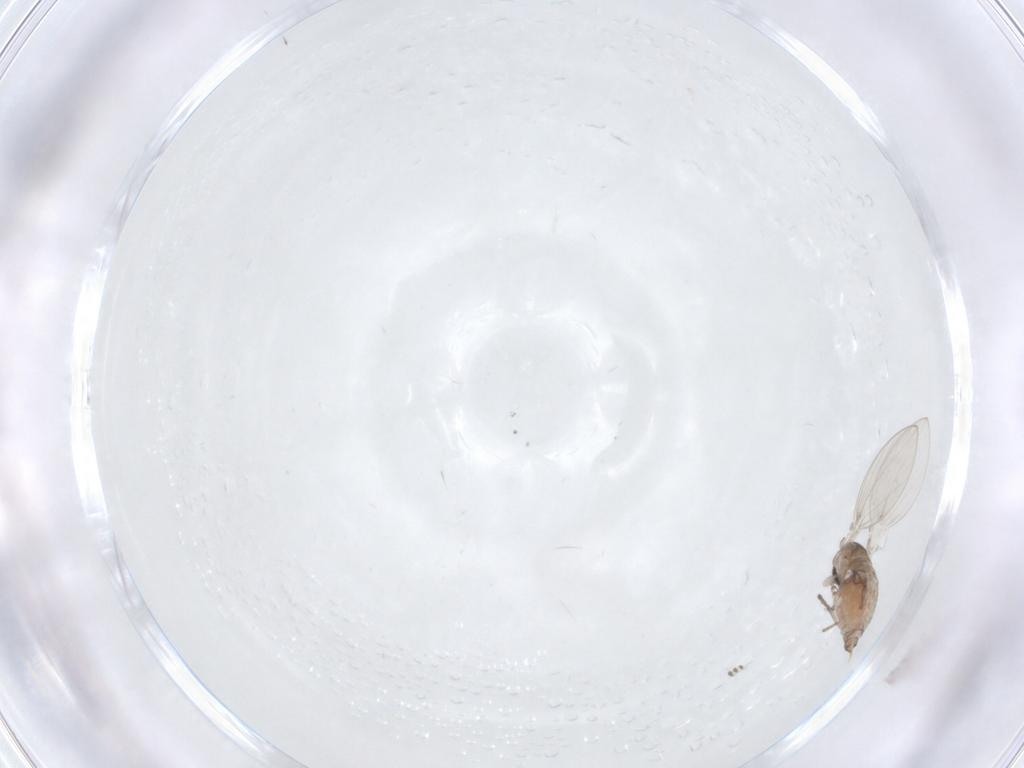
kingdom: Animalia
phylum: Arthropoda
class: Insecta
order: Diptera
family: Psychodidae
